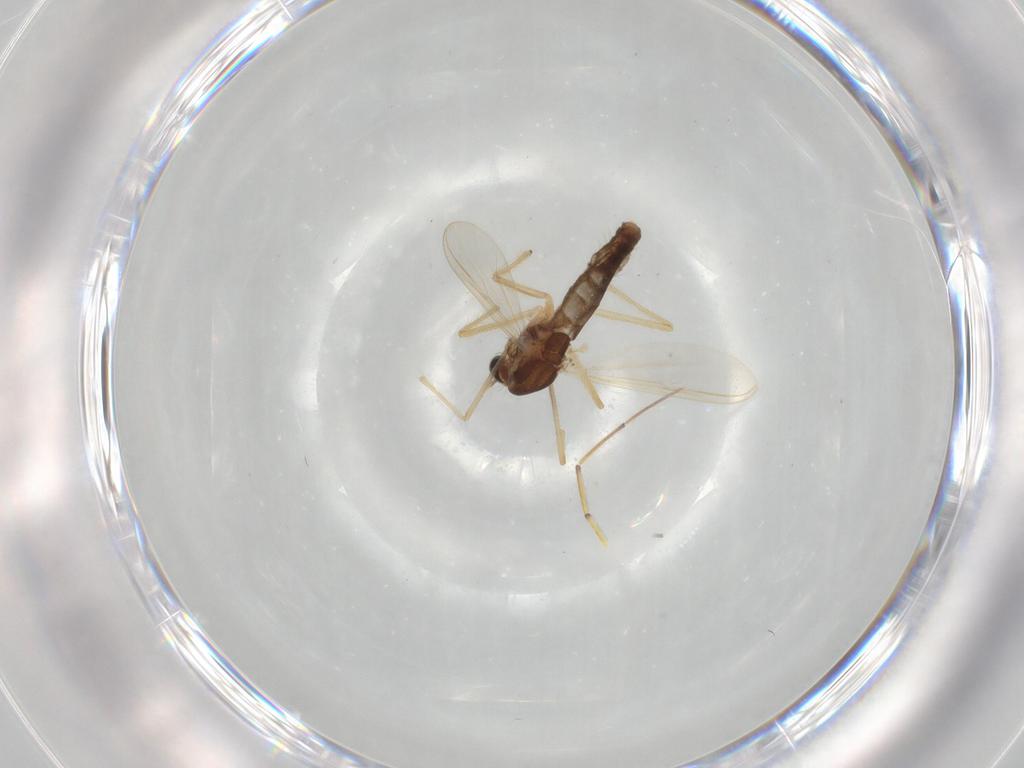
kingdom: Animalia
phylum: Arthropoda
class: Insecta
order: Diptera
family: Chironomidae
